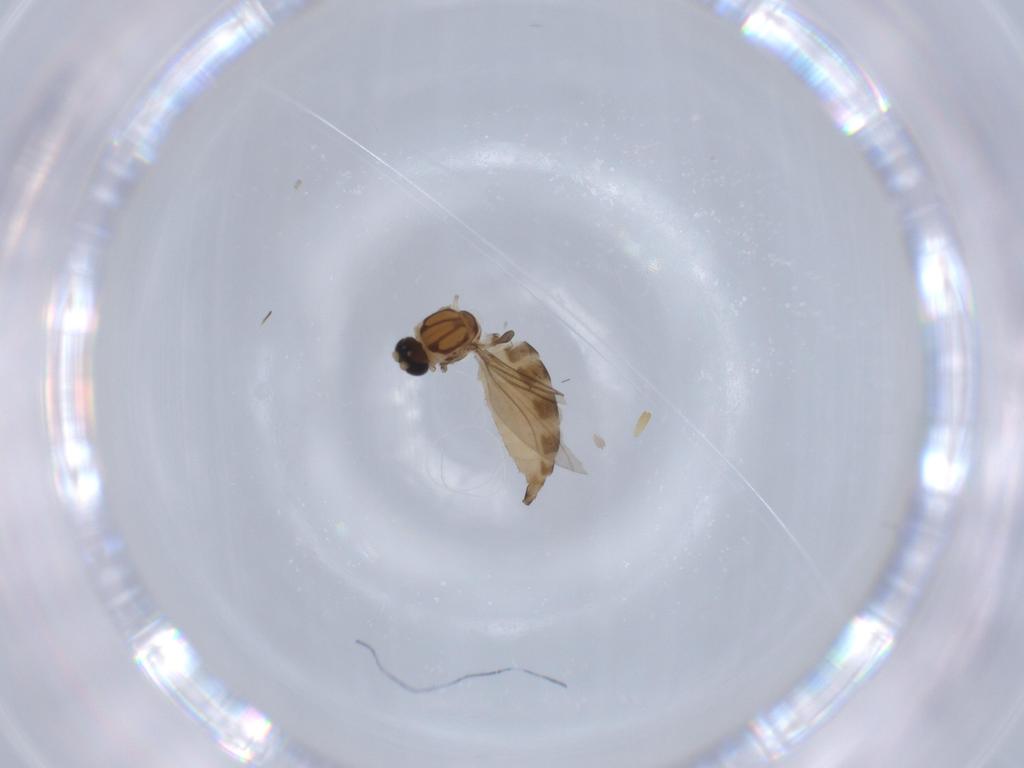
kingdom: Animalia
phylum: Arthropoda
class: Insecta
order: Diptera
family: Sciaridae
